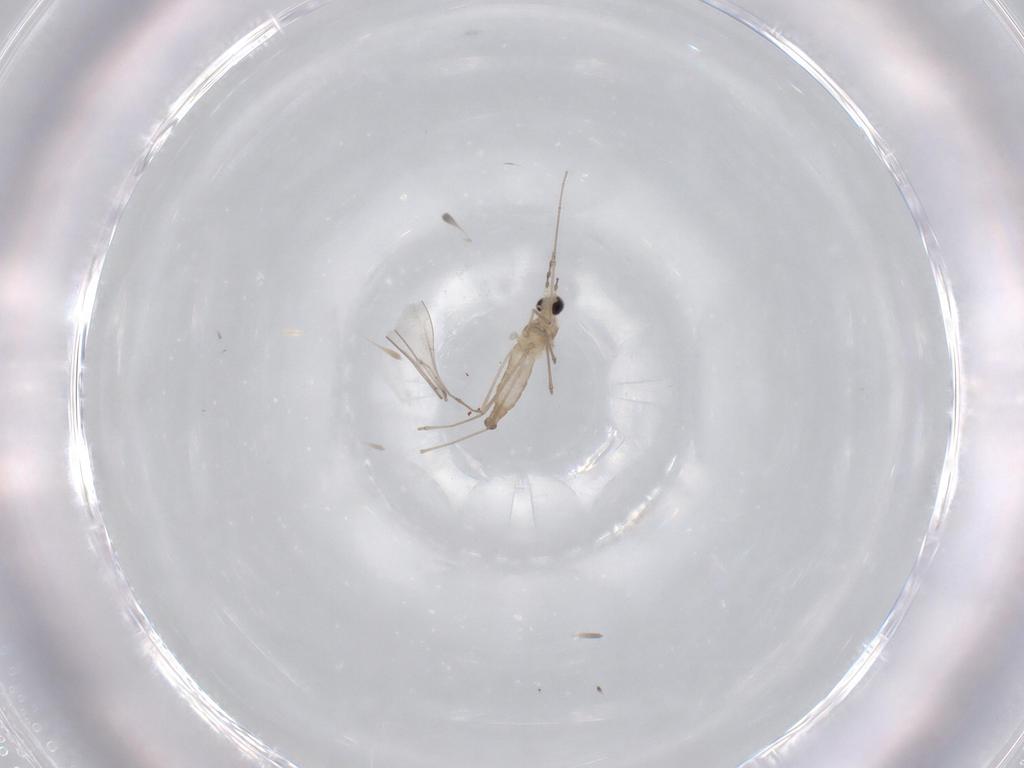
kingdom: Animalia
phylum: Arthropoda
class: Insecta
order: Diptera
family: Cecidomyiidae
